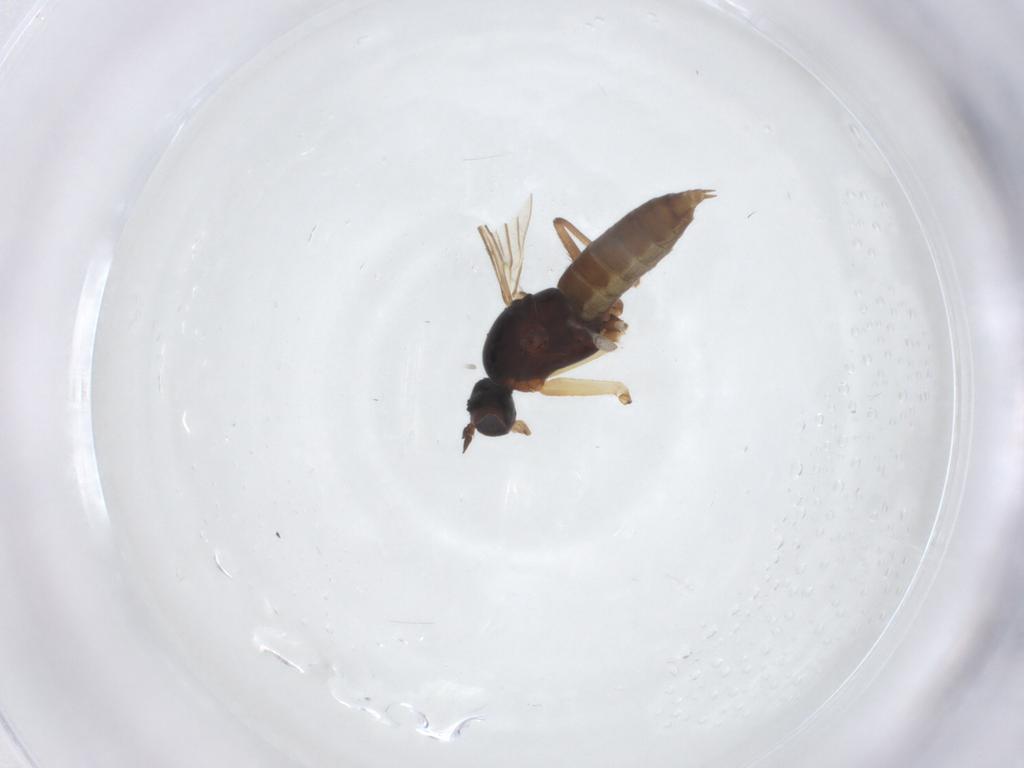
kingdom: Animalia
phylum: Arthropoda
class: Insecta
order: Diptera
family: Empididae
